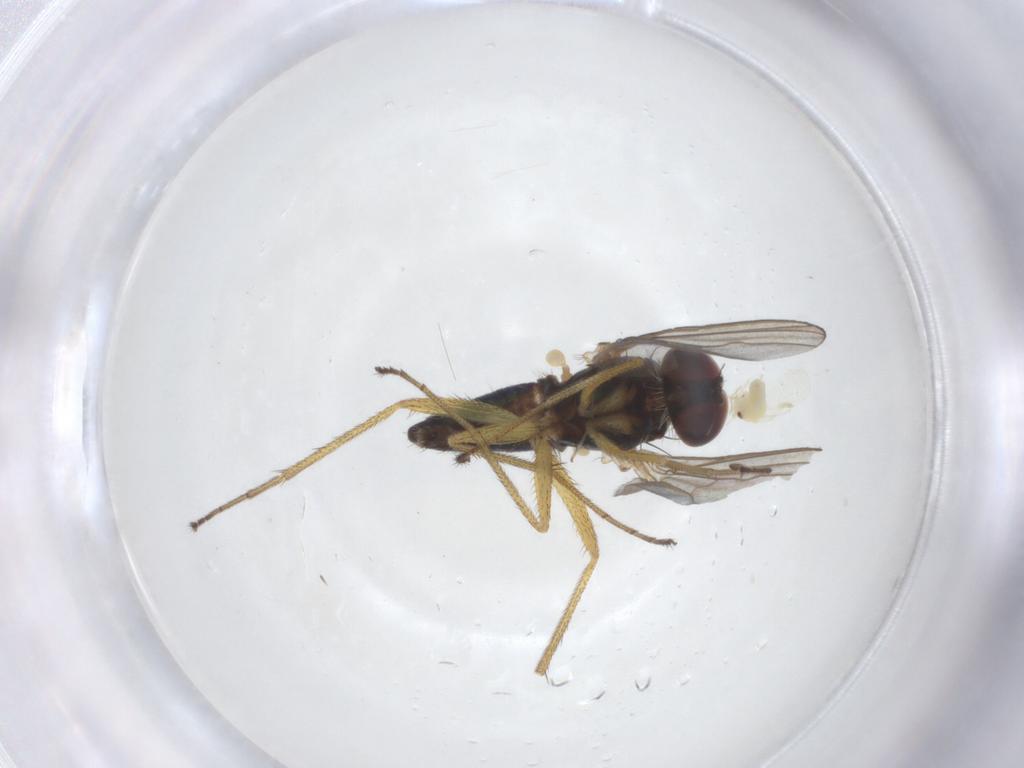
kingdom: Animalia
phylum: Arthropoda
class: Insecta
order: Diptera
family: Dolichopodidae
